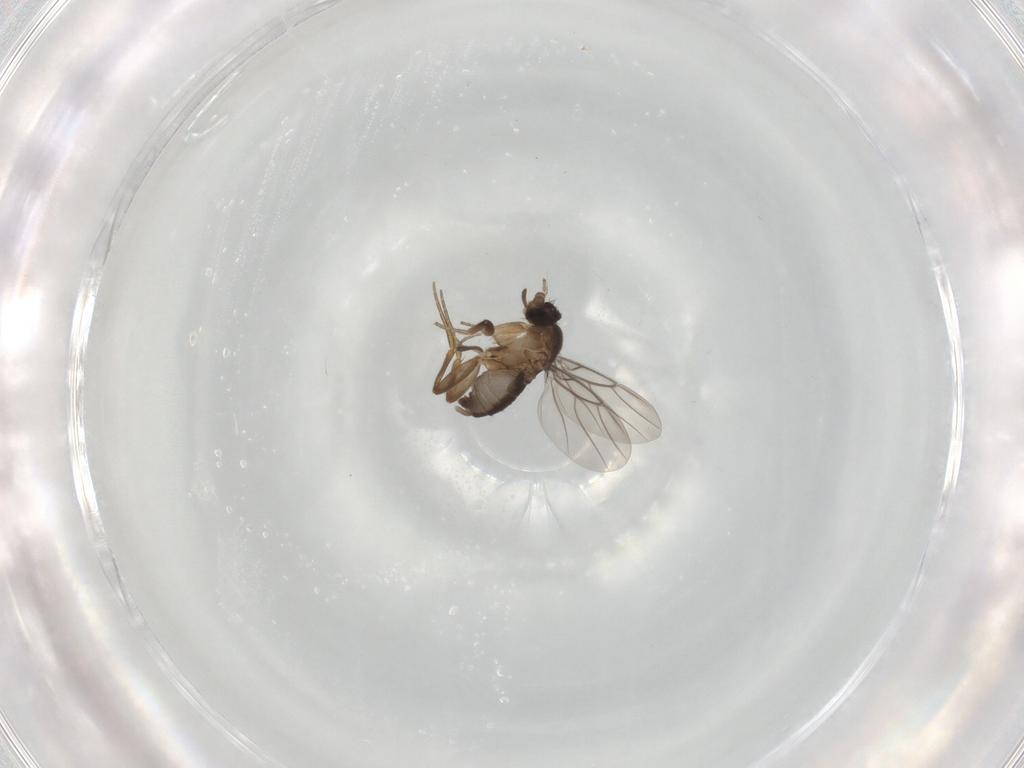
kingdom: Animalia
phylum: Arthropoda
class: Insecta
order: Diptera
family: Phoridae
